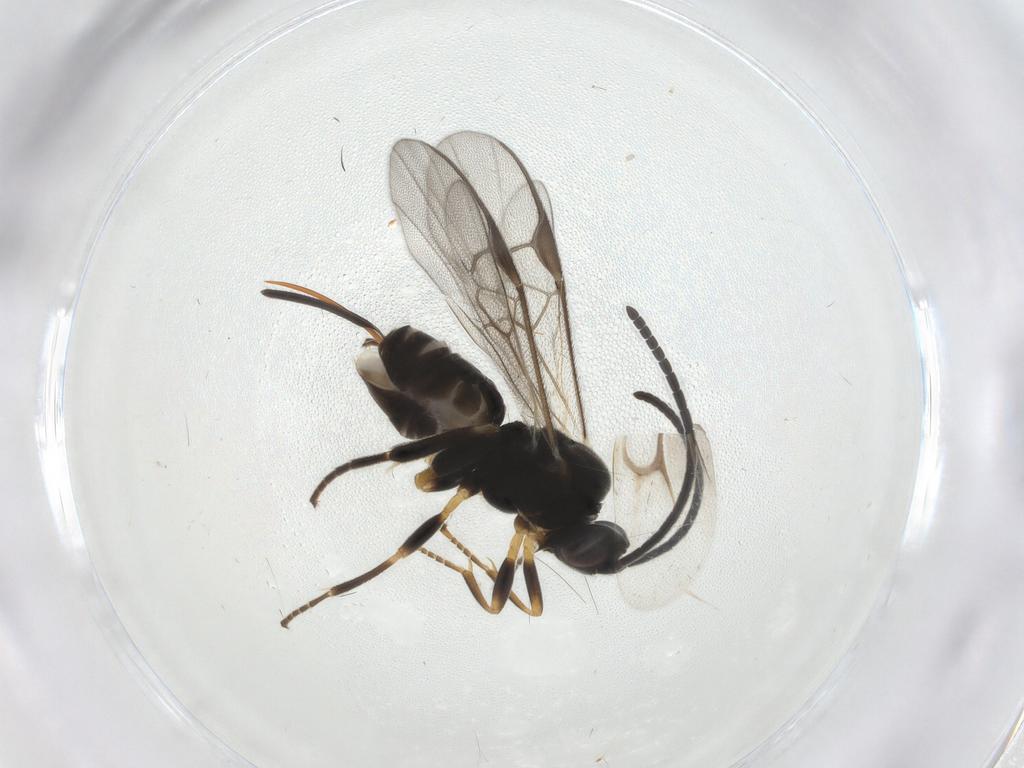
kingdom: Animalia
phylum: Arthropoda
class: Insecta
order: Hymenoptera
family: Braconidae
